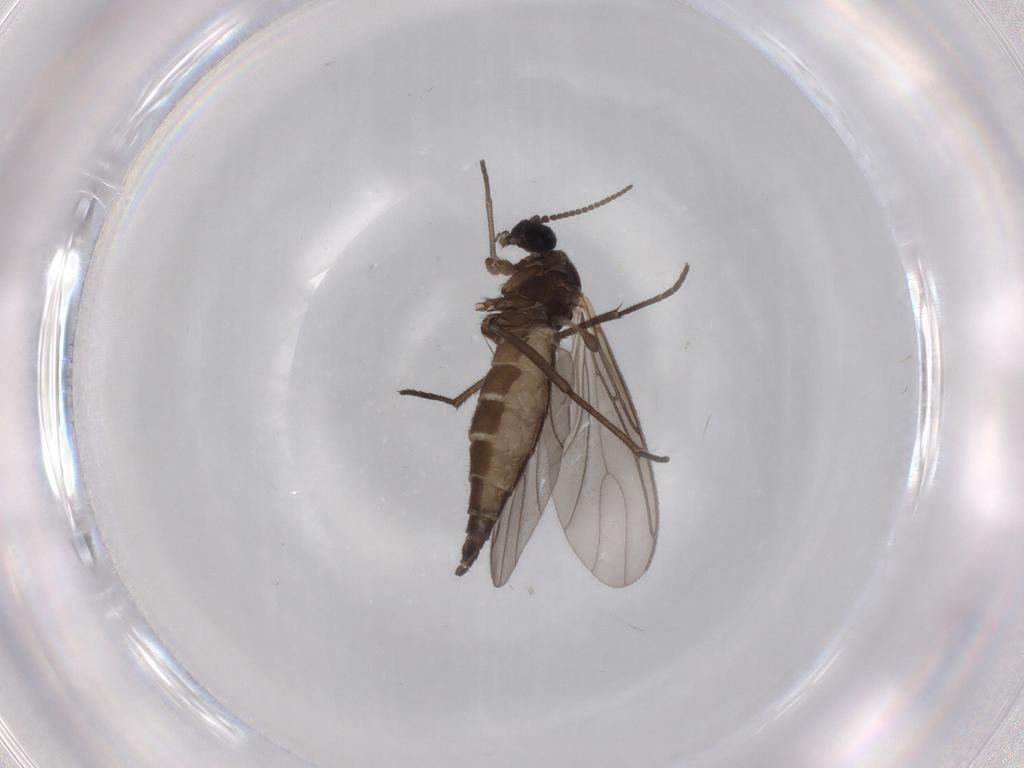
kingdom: Animalia
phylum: Arthropoda
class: Insecta
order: Diptera
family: Sciaridae
